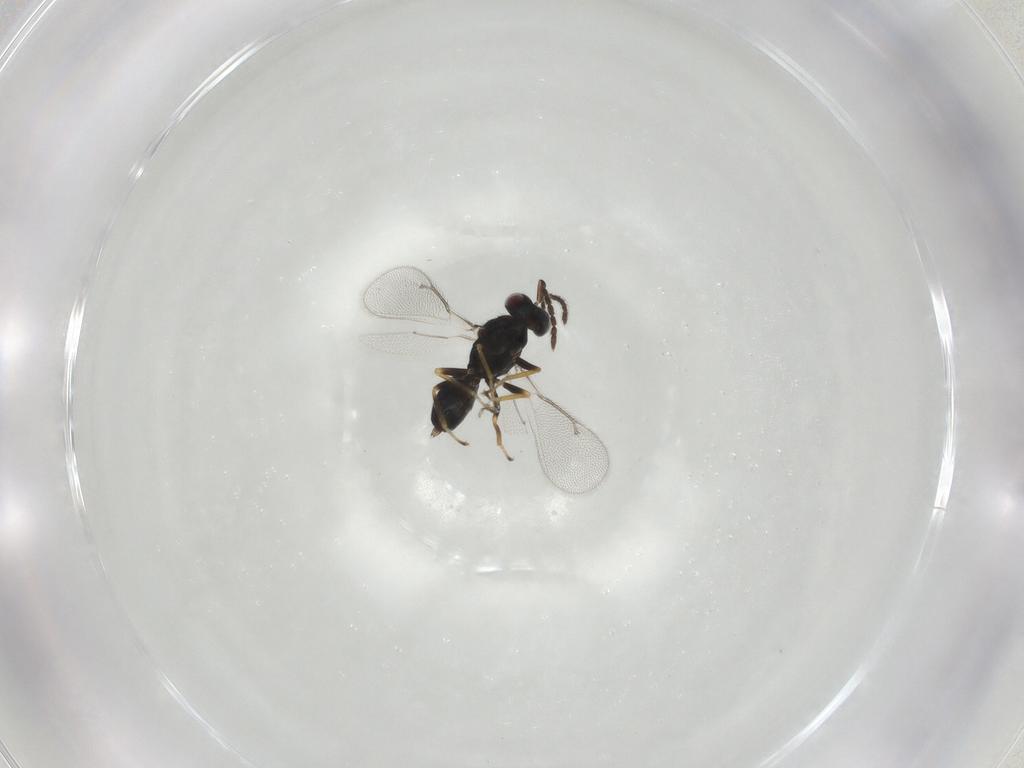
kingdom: Animalia
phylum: Arthropoda
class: Insecta
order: Hymenoptera
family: Eulophidae
